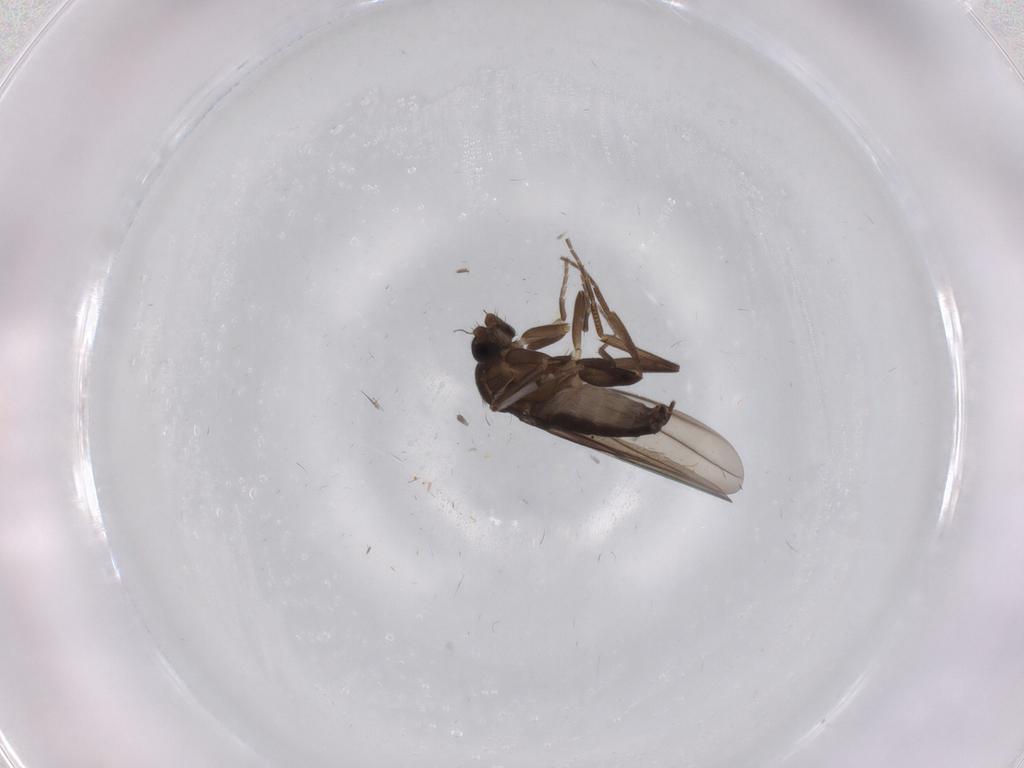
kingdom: Animalia
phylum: Arthropoda
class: Insecta
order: Diptera
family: Phoridae
